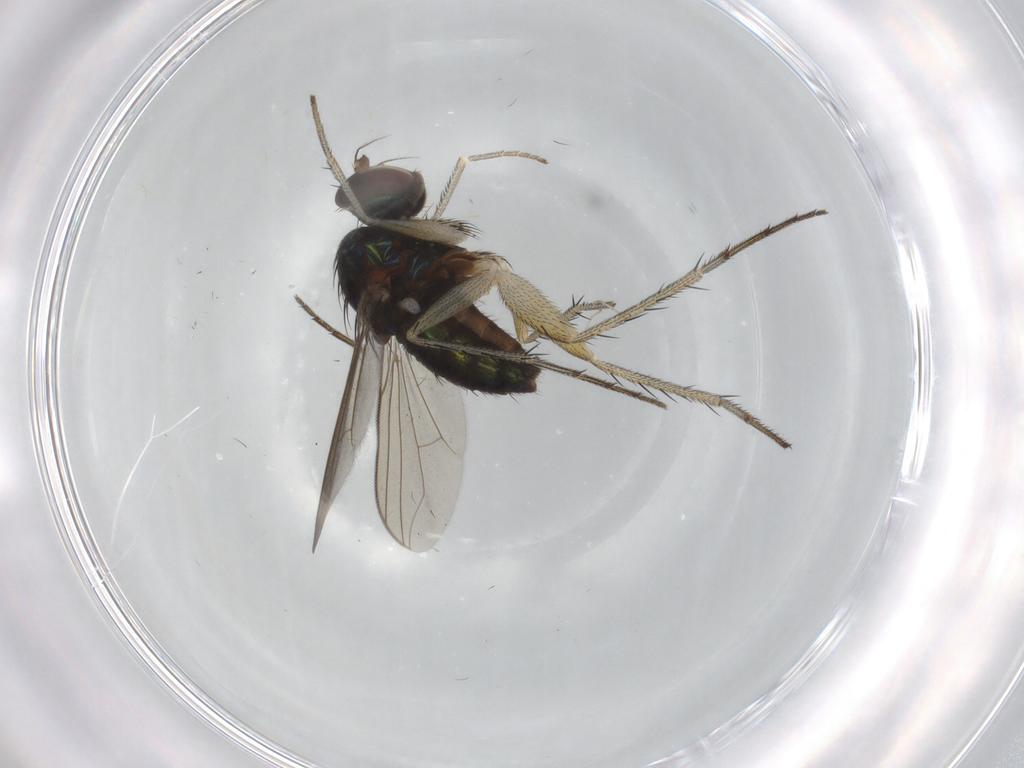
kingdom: Animalia
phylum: Arthropoda
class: Insecta
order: Diptera
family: Dolichopodidae
